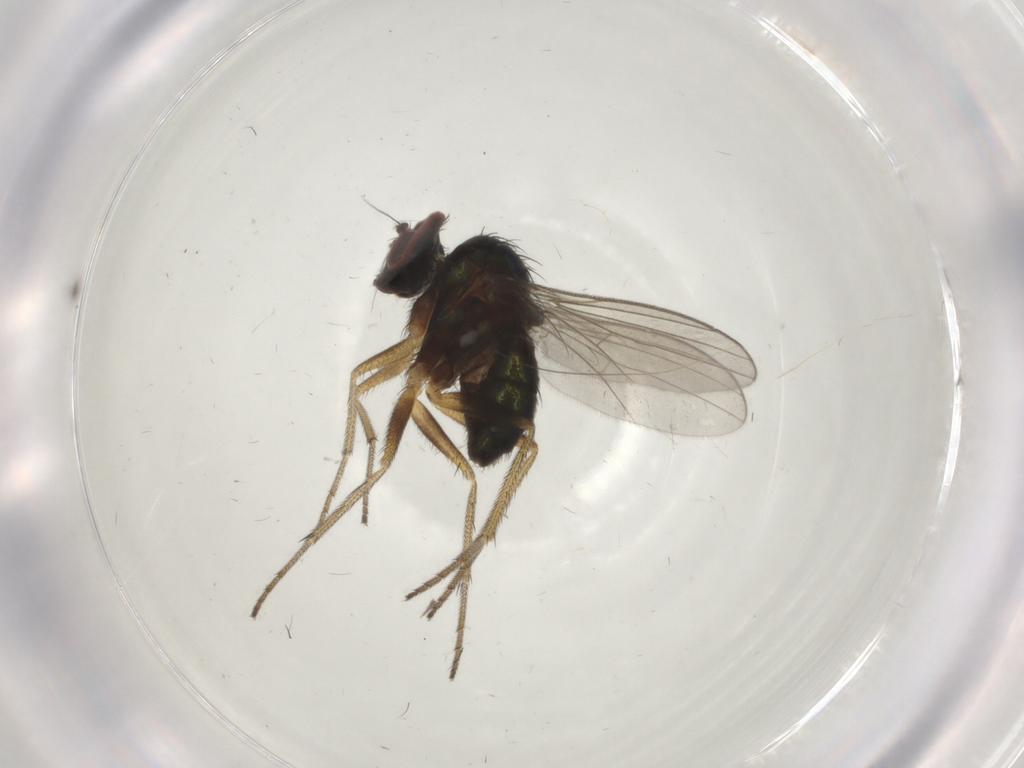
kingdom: Animalia
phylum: Arthropoda
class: Insecta
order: Diptera
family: Dolichopodidae
